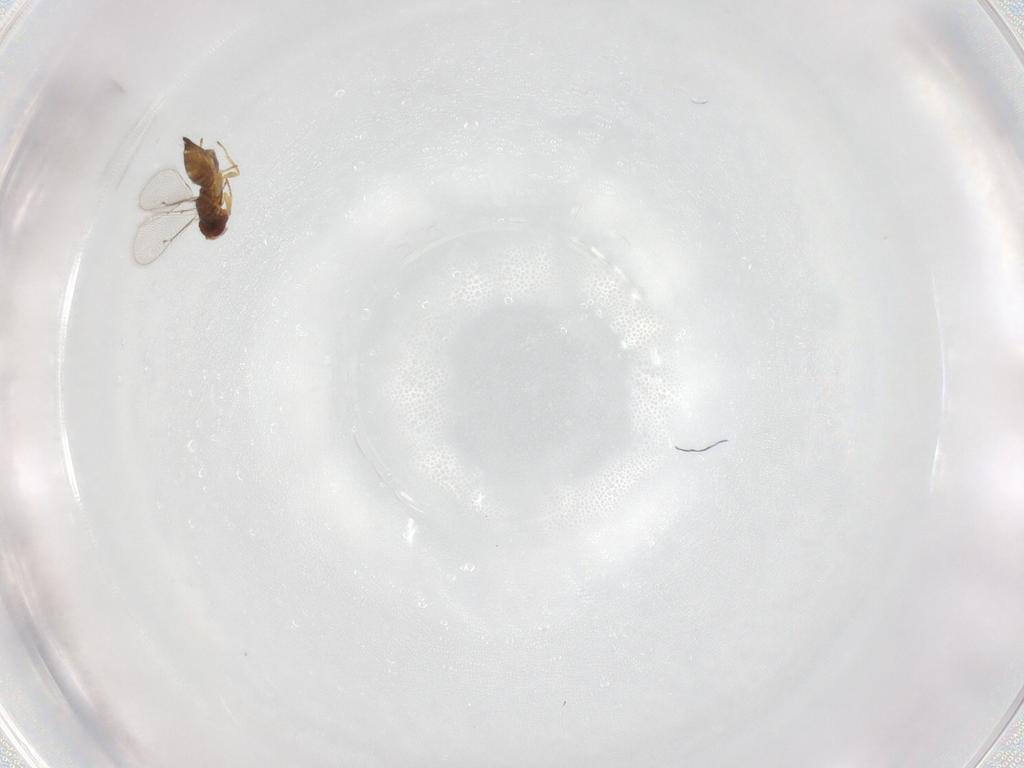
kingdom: Animalia
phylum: Arthropoda
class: Insecta
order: Hymenoptera
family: Eulophidae
